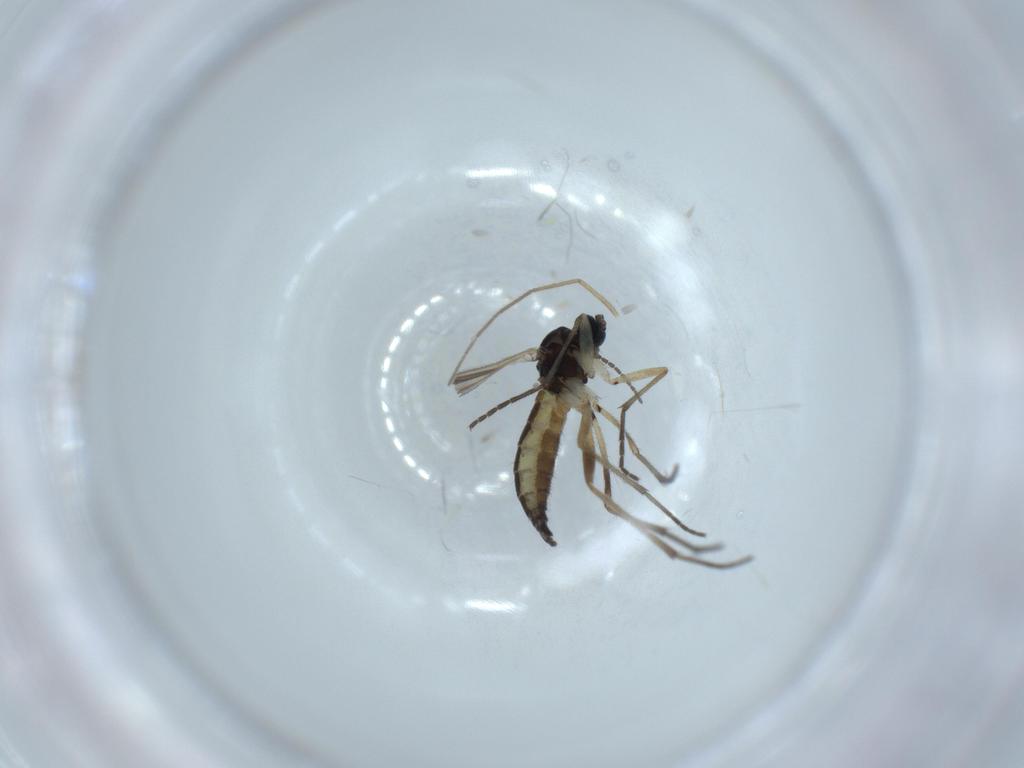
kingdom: Animalia
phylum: Arthropoda
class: Insecta
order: Diptera
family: Sciaridae
